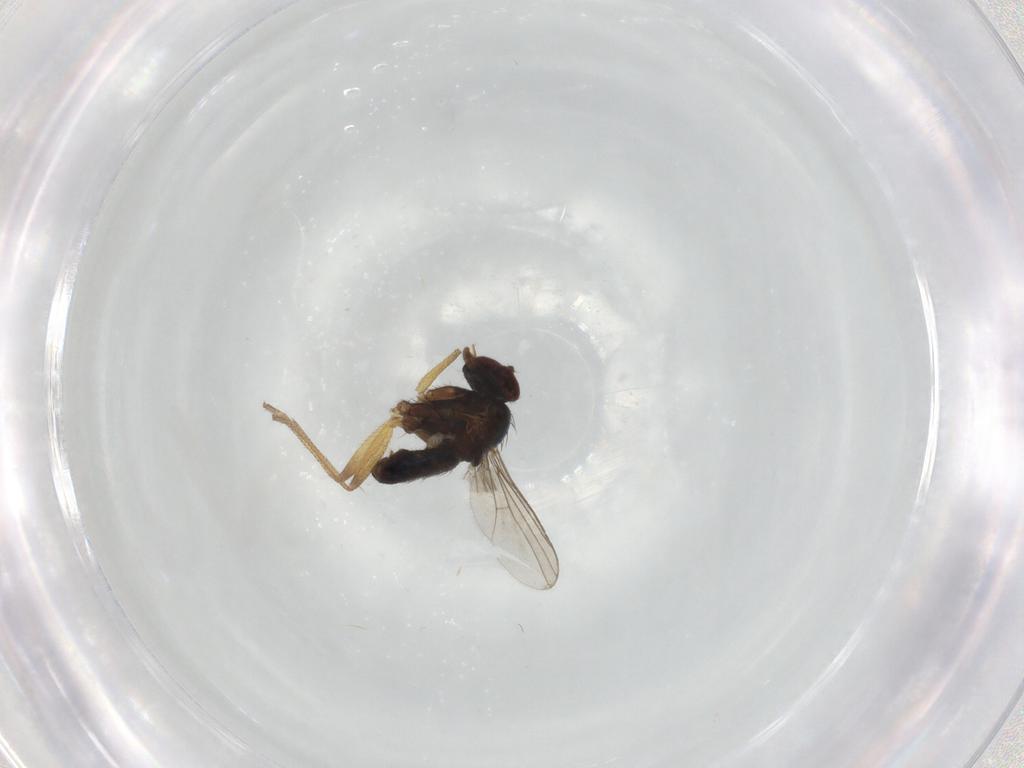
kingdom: Animalia
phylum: Arthropoda
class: Insecta
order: Diptera
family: Dolichopodidae
